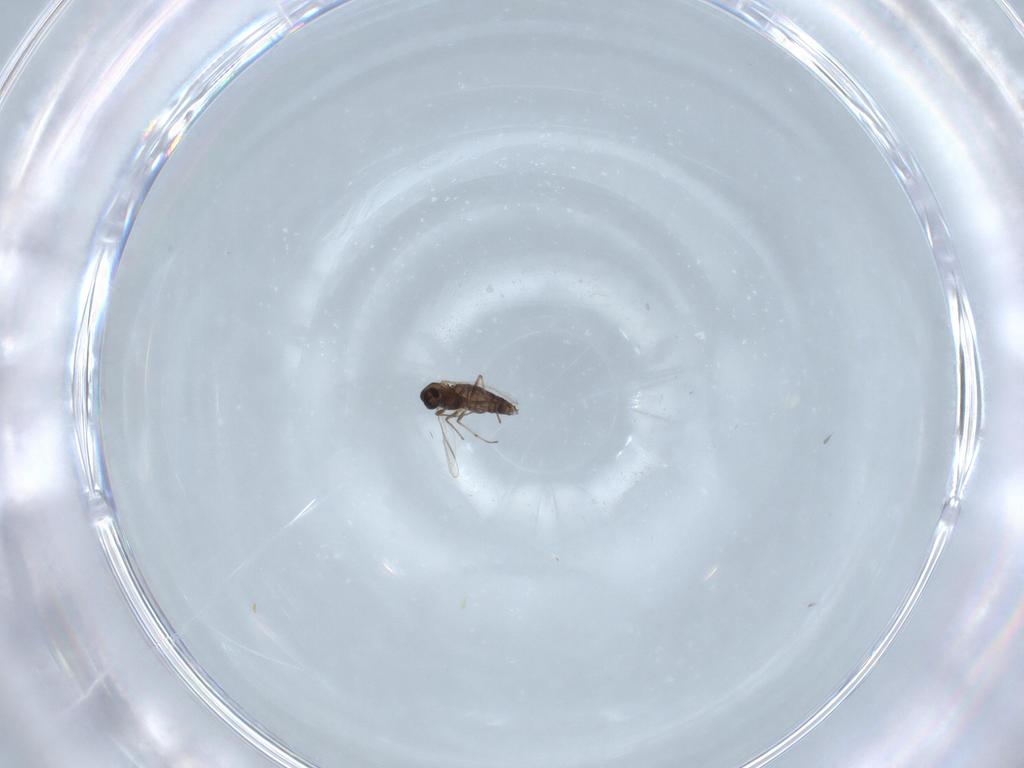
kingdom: Animalia
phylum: Arthropoda
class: Insecta
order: Diptera
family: Chironomidae
